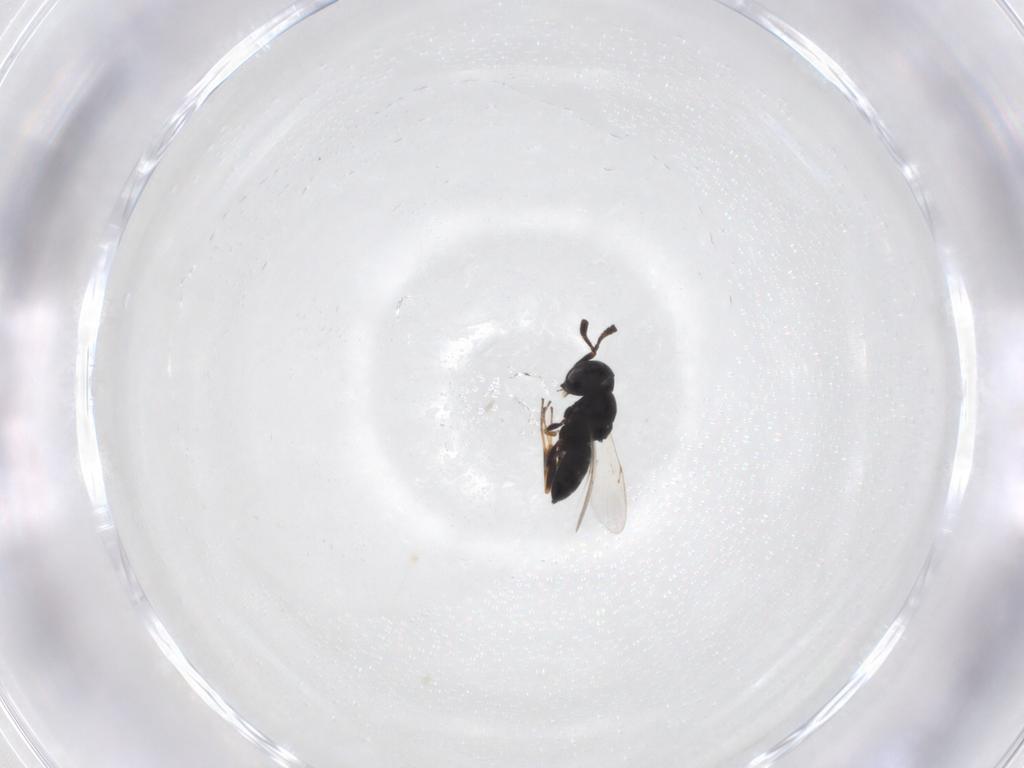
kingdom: Animalia
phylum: Arthropoda
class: Insecta
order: Hymenoptera
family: Scelionidae
